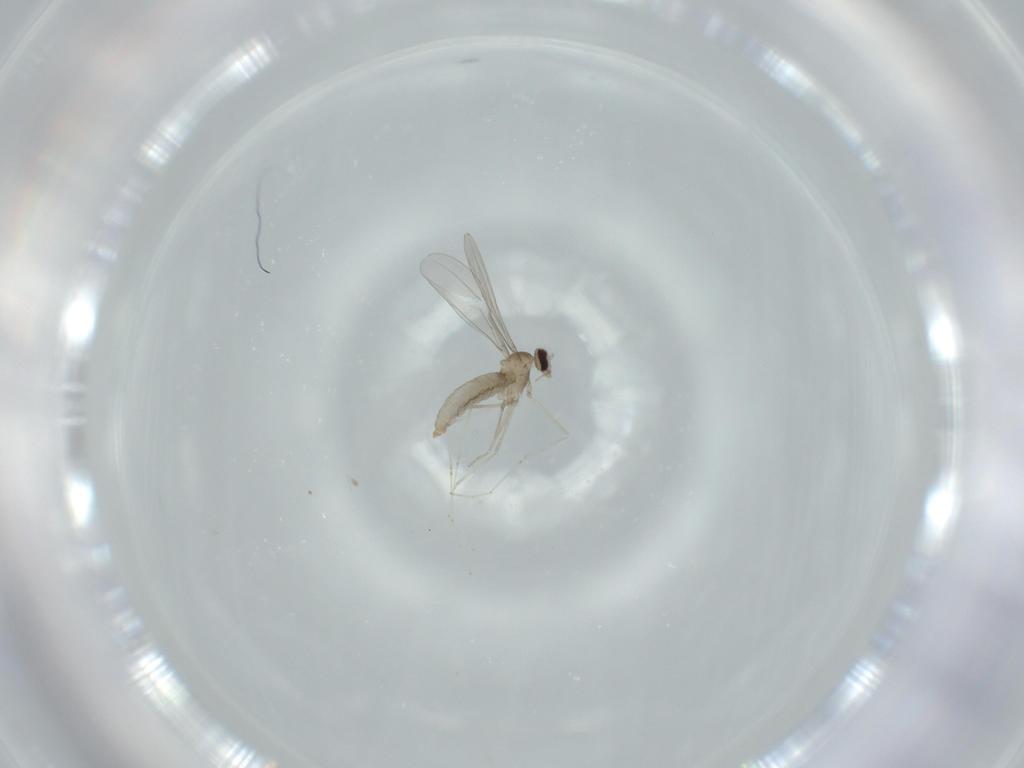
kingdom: Animalia
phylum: Arthropoda
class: Insecta
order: Diptera
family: Cecidomyiidae
